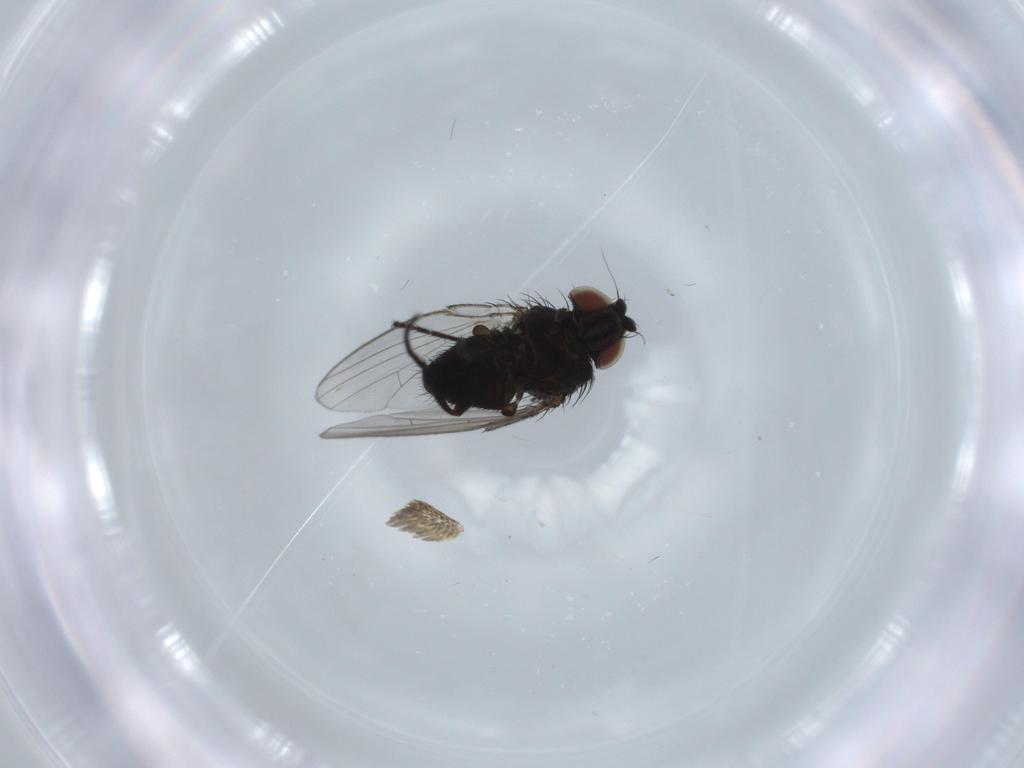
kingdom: Animalia
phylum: Arthropoda
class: Insecta
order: Diptera
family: Milichiidae
